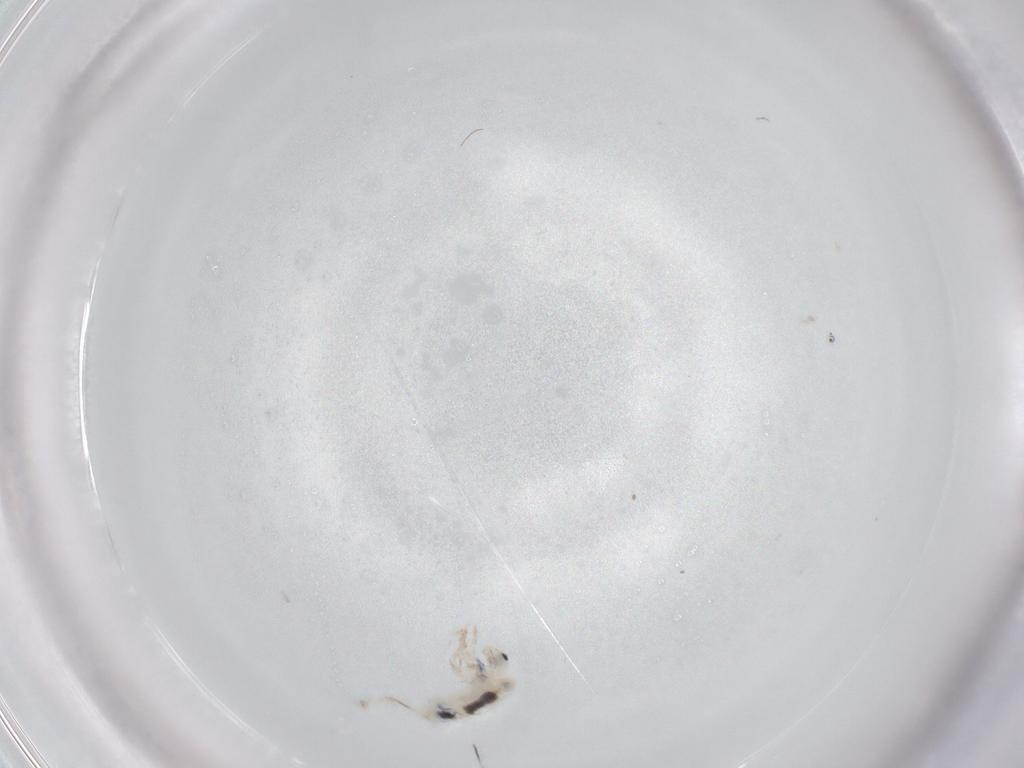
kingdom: Animalia
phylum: Arthropoda
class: Collembola
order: Entomobryomorpha
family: Entomobryidae
